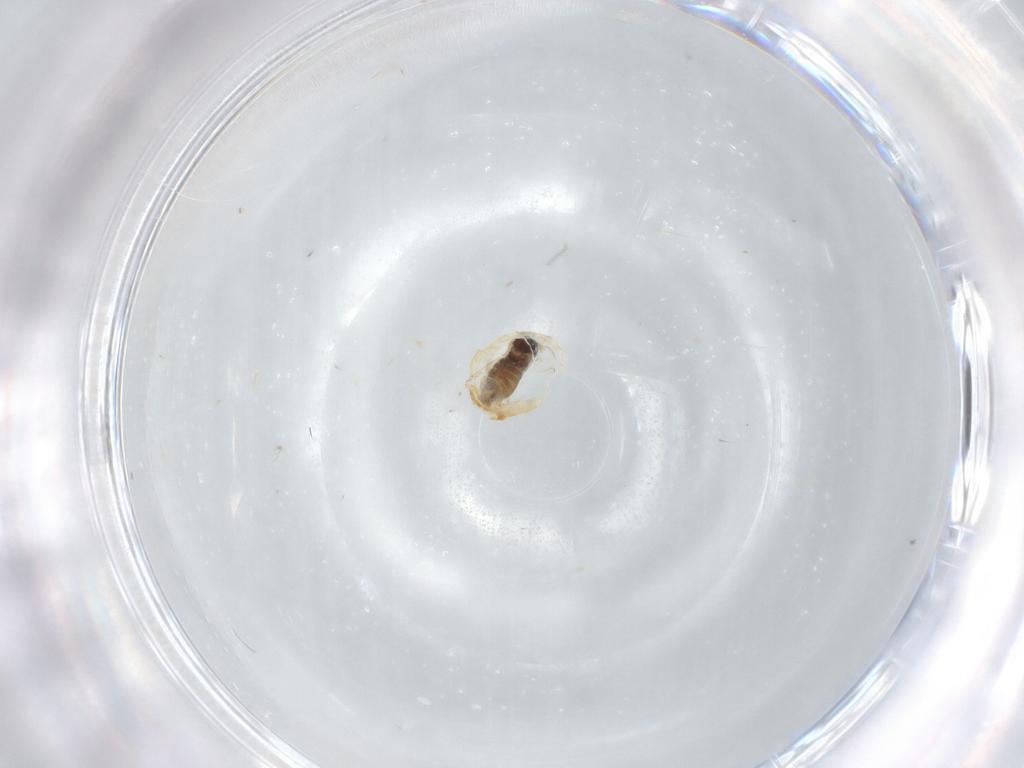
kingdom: Animalia
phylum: Arthropoda
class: Insecta
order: Diptera
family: Cecidomyiidae
